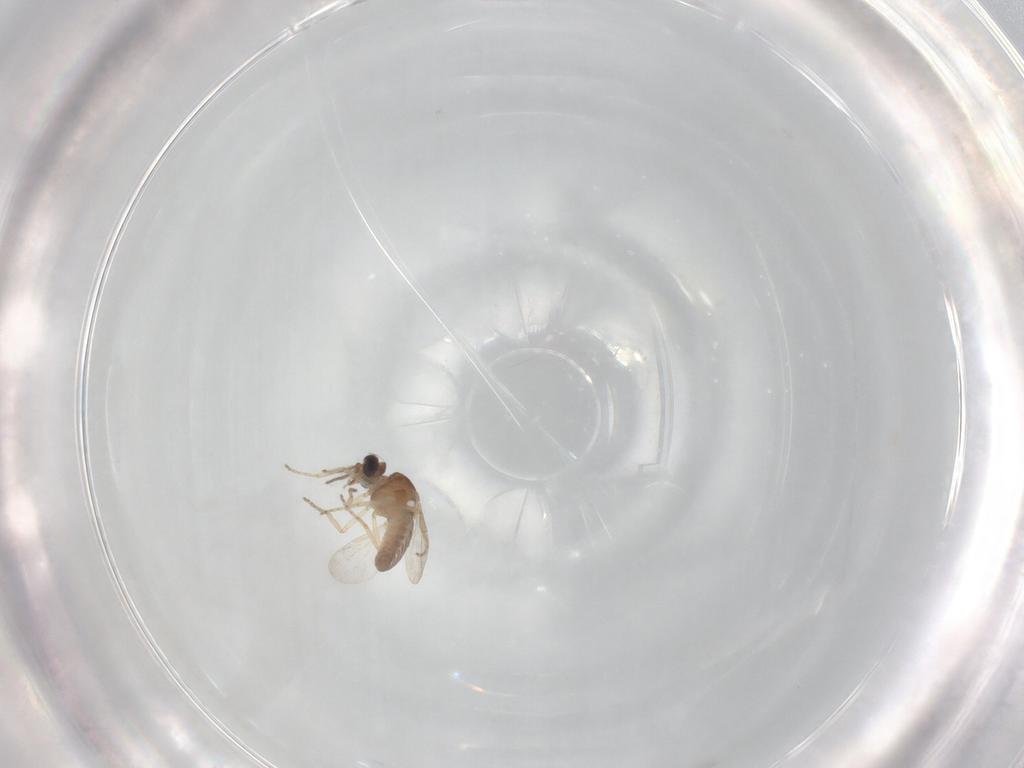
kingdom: Animalia
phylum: Arthropoda
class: Insecta
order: Diptera
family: Ceratopogonidae
